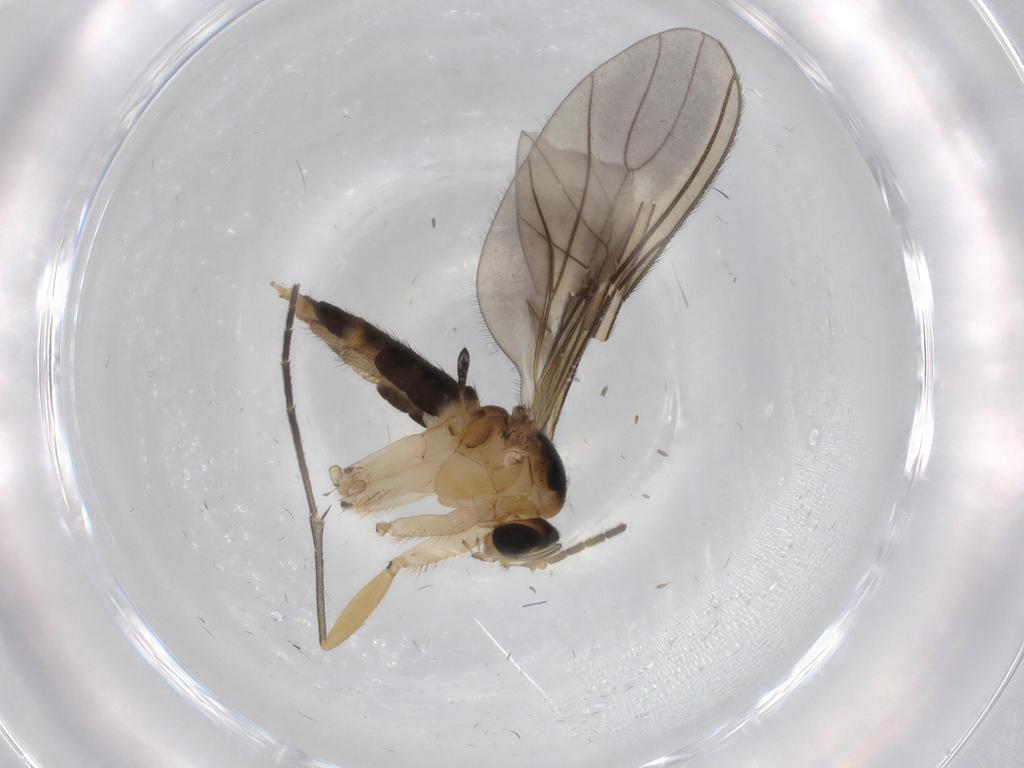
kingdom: Animalia
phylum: Arthropoda
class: Insecta
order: Diptera
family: Sciaridae
